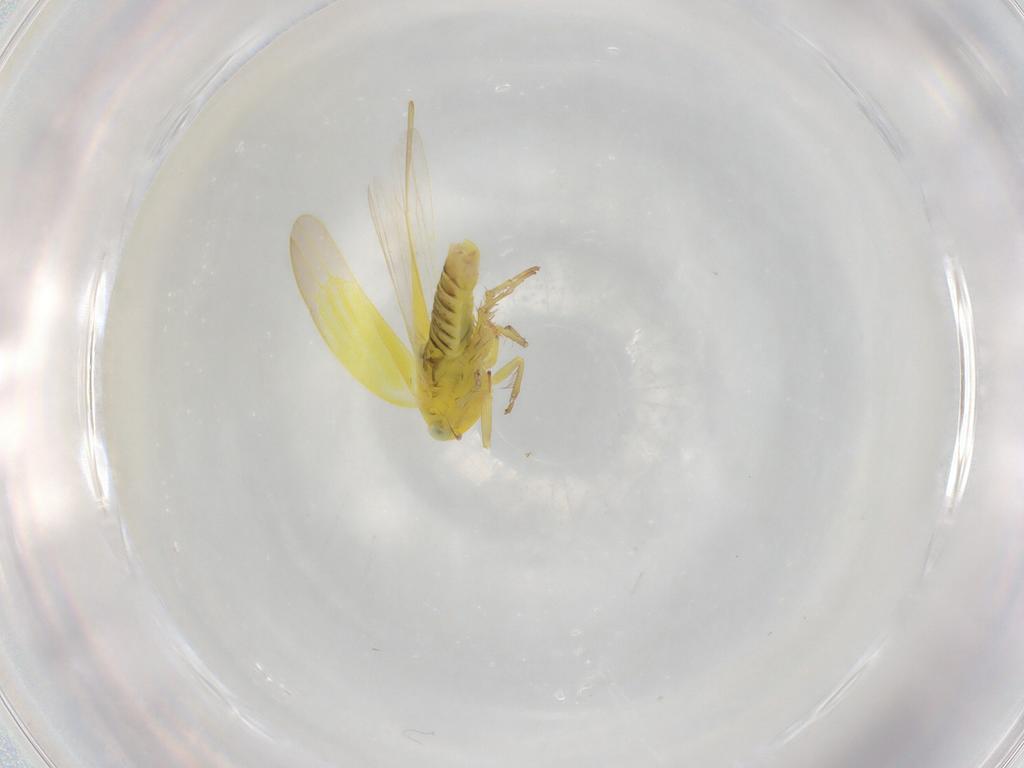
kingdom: Animalia
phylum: Arthropoda
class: Insecta
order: Hemiptera
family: Cicadellidae
